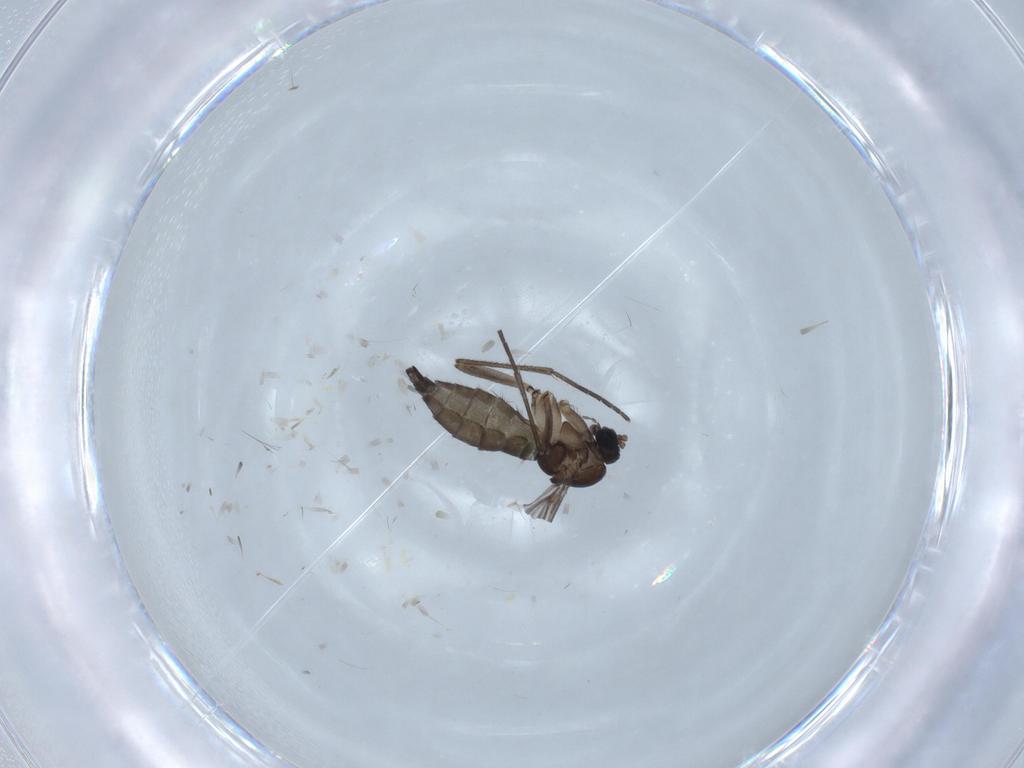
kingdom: Animalia
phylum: Arthropoda
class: Insecta
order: Diptera
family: Sciaridae
